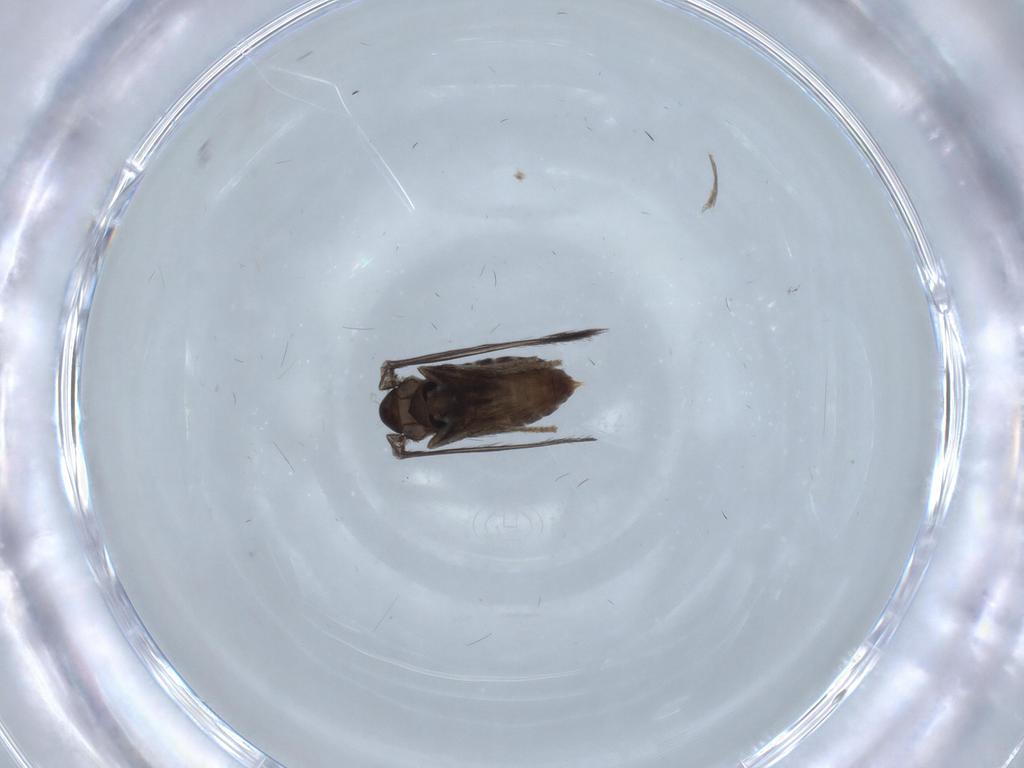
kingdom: Animalia
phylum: Arthropoda
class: Insecta
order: Diptera
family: Psychodidae
